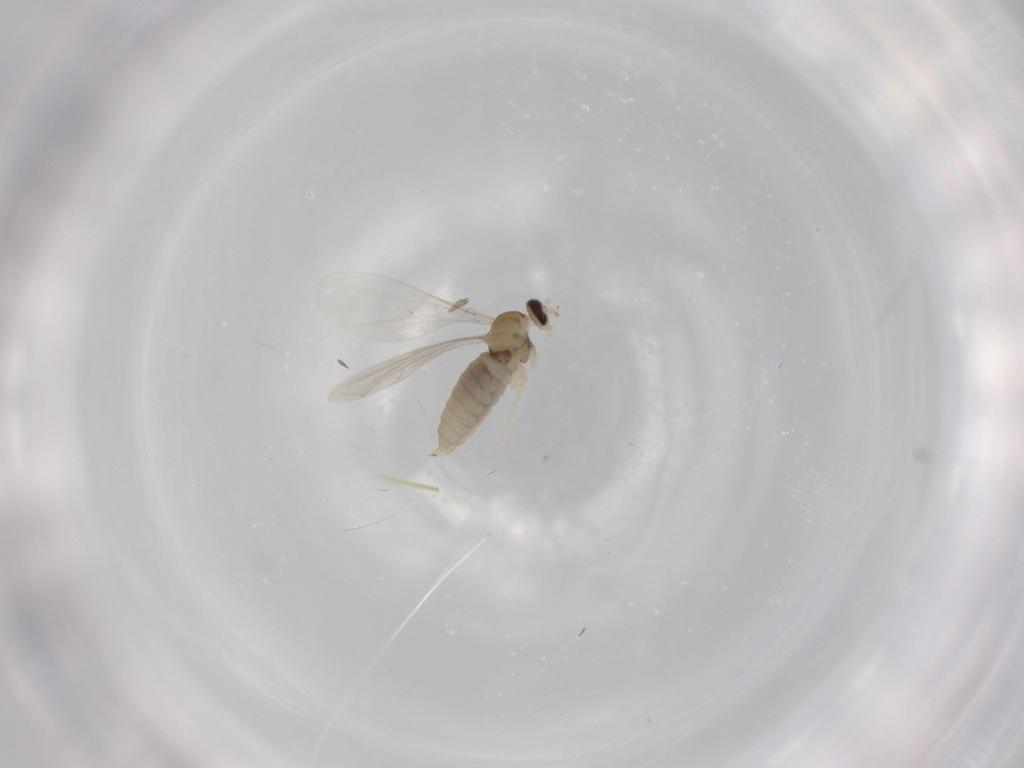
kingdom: Animalia
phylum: Arthropoda
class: Insecta
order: Diptera
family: Cecidomyiidae
